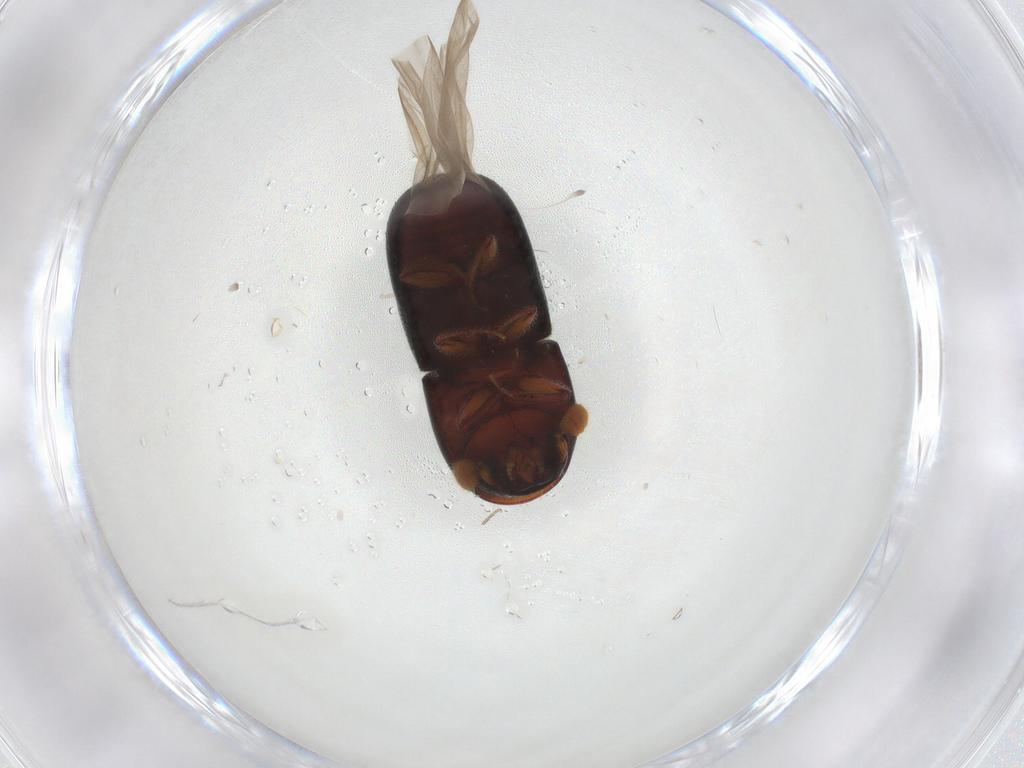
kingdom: Animalia
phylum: Arthropoda
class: Insecta
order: Coleoptera
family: Curculionidae
